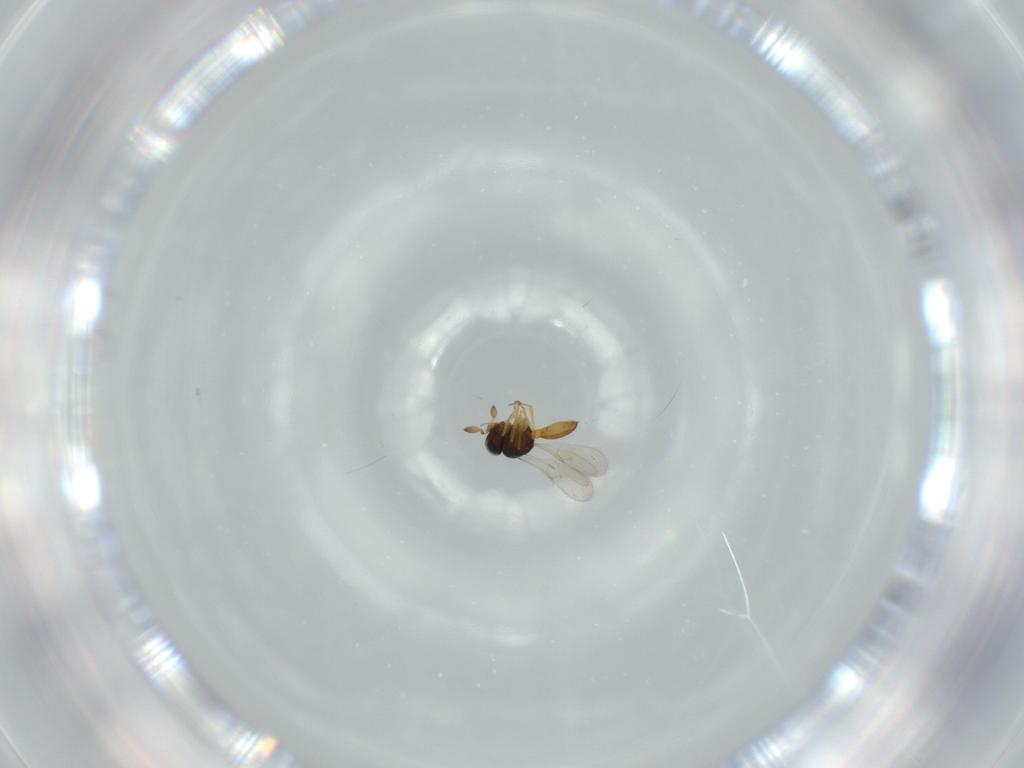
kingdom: Animalia
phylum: Arthropoda
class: Insecta
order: Hymenoptera
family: Scelionidae
